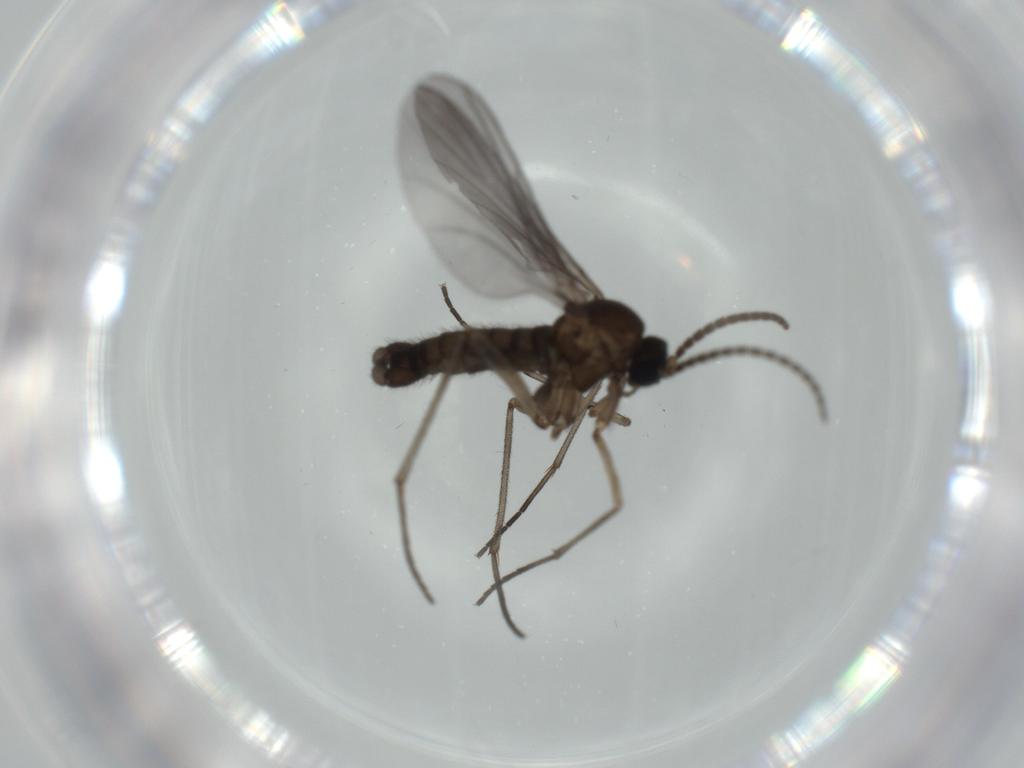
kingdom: Animalia
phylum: Arthropoda
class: Insecta
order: Diptera
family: Sciaridae
